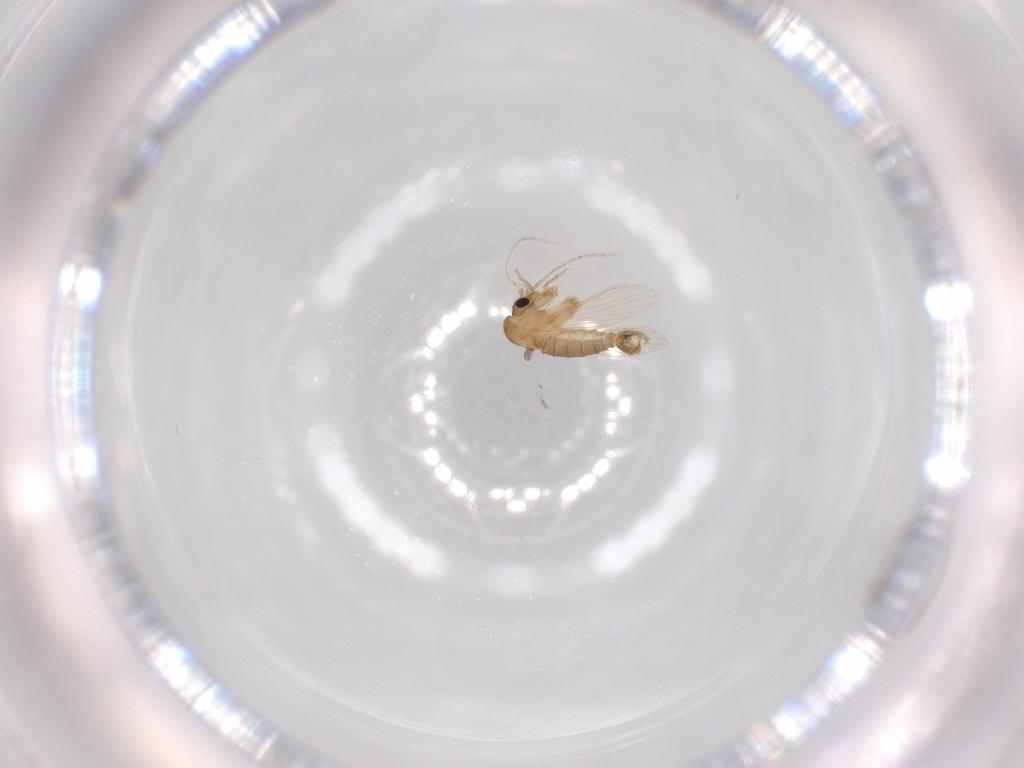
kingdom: Animalia
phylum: Arthropoda
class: Insecta
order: Diptera
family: Psychodidae
